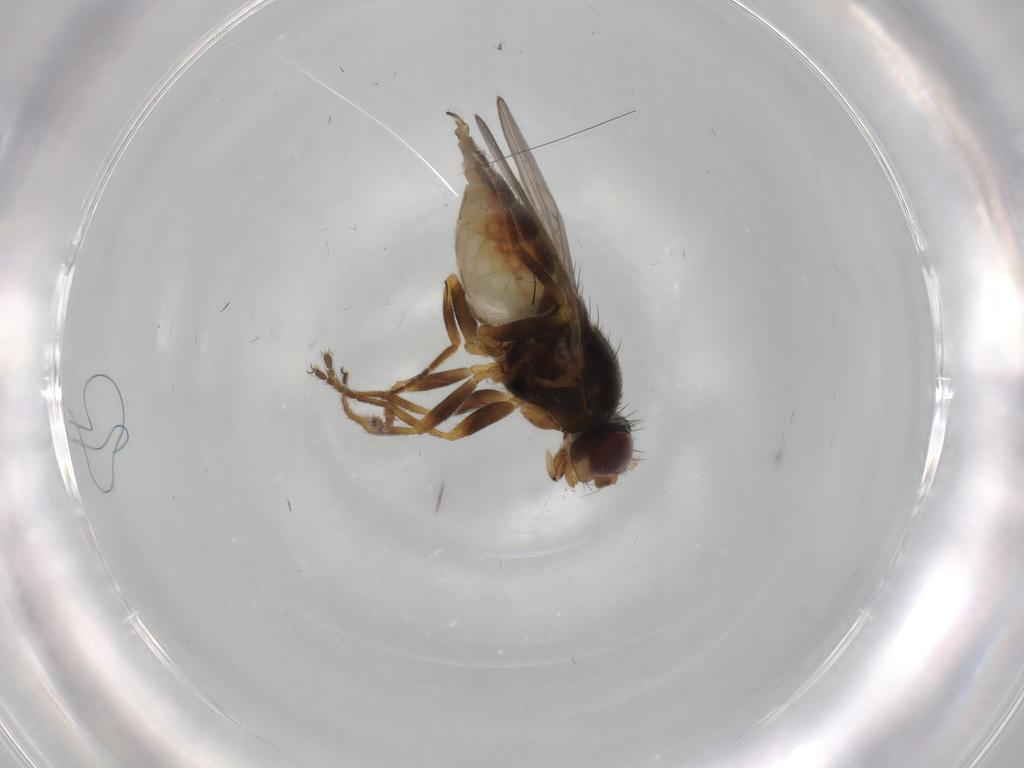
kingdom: Animalia
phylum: Arthropoda
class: Insecta
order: Diptera
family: Chloropidae
